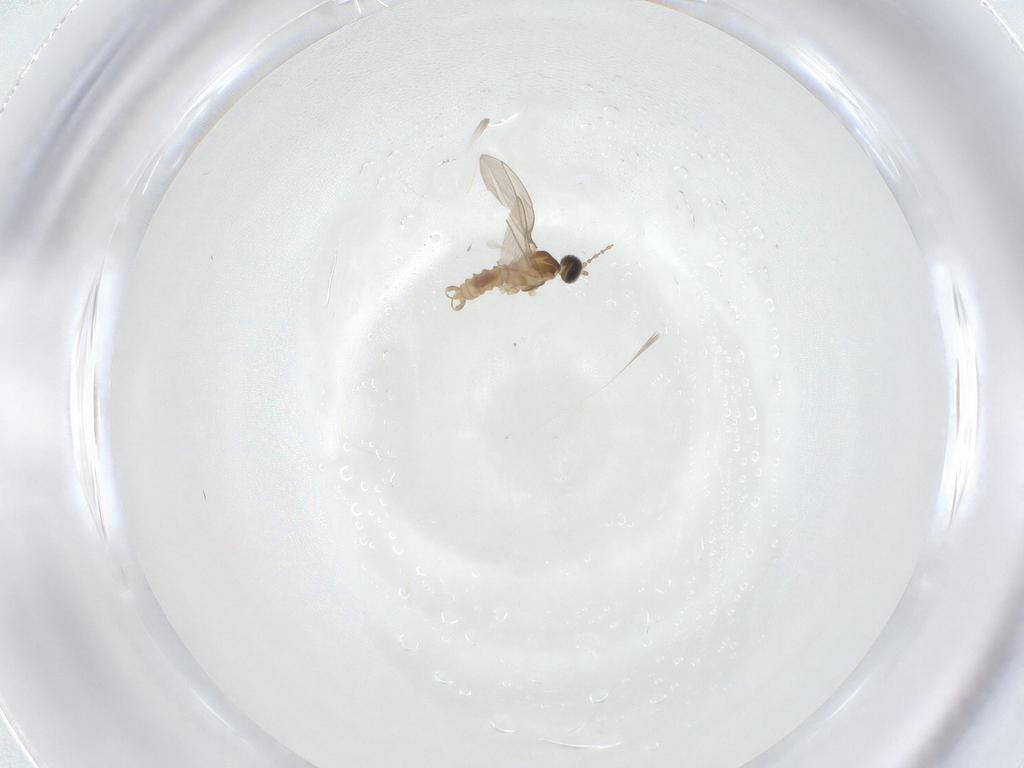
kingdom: Animalia
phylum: Arthropoda
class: Insecta
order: Diptera
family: Cecidomyiidae
